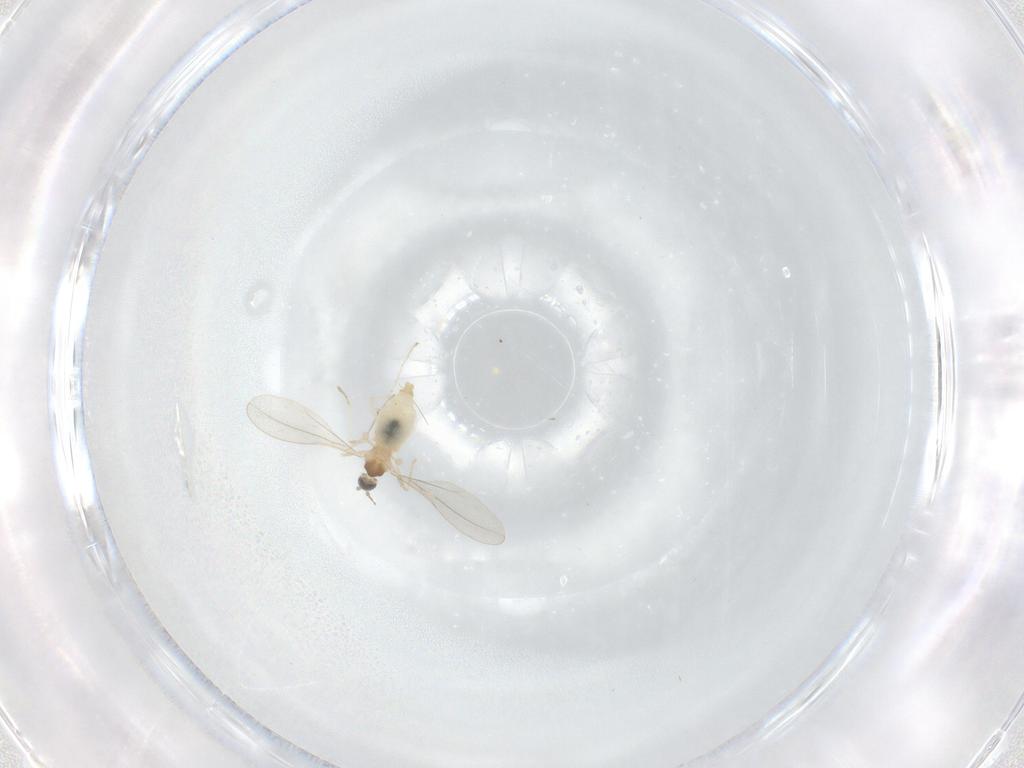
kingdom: Animalia
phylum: Arthropoda
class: Insecta
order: Diptera
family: Cecidomyiidae
